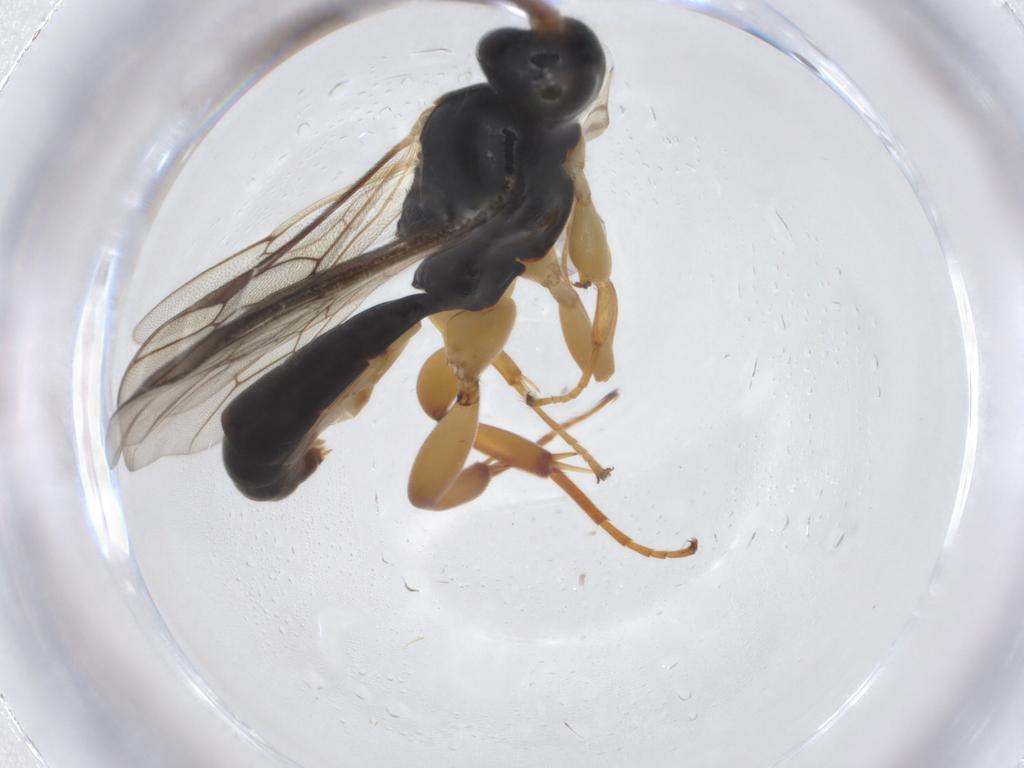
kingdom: Animalia
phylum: Arthropoda
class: Insecta
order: Hymenoptera
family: Ichneumonidae
